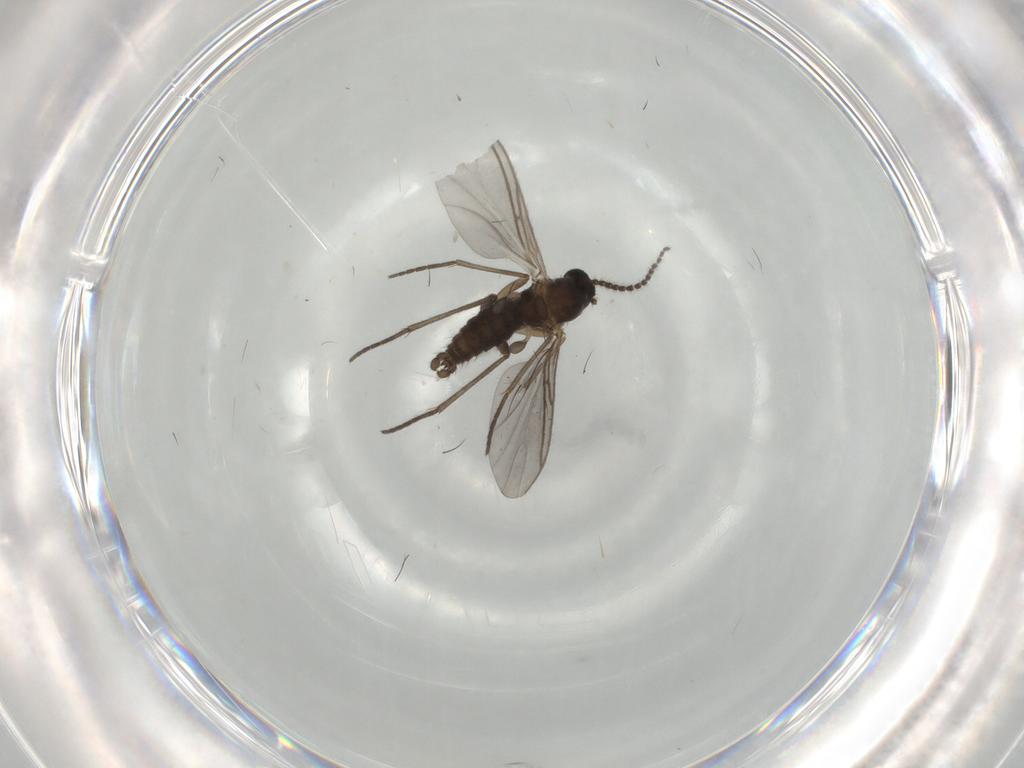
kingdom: Animalia
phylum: Arthropoda
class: Insecta
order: Diptera
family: Sciaridae
